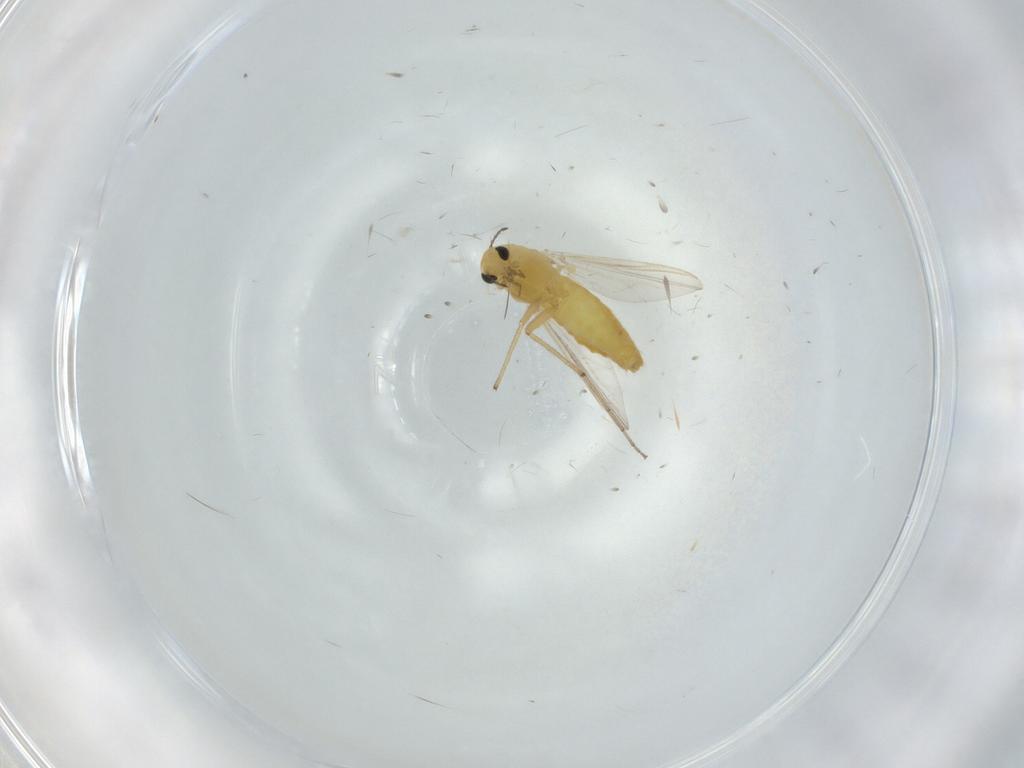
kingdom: Animalia
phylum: Arthropoda
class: Insecta
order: Diptera
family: Chironomidae
